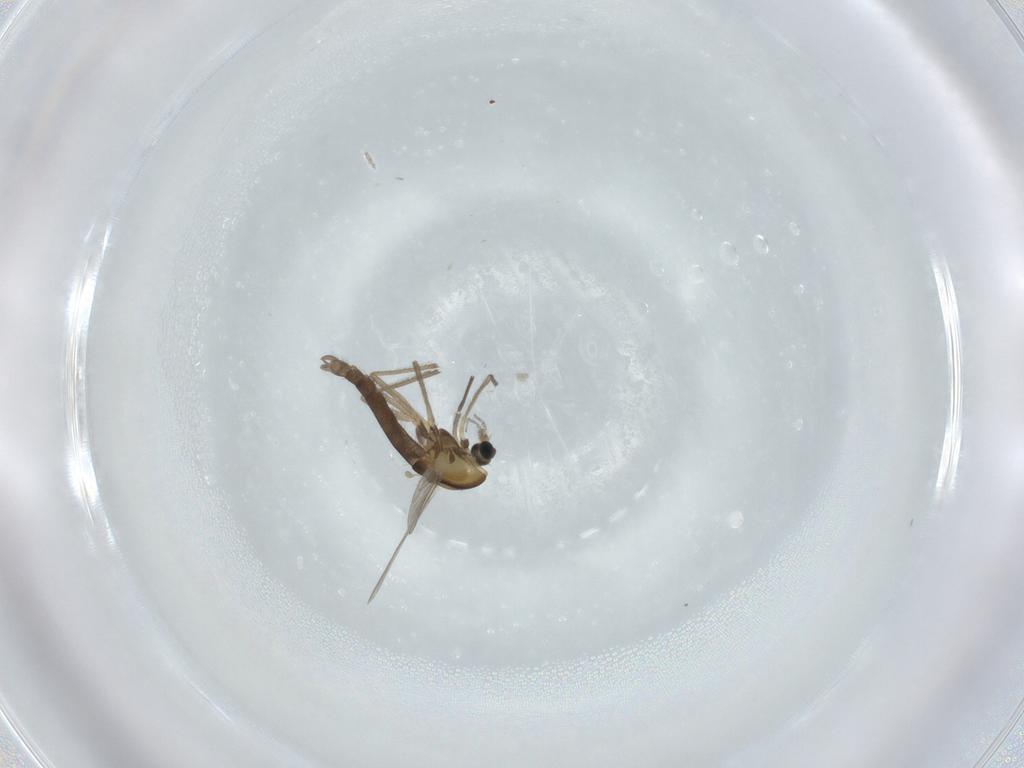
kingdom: Animalia
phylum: Arthropoda
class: Insecta
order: Diptera
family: Chironomidae
